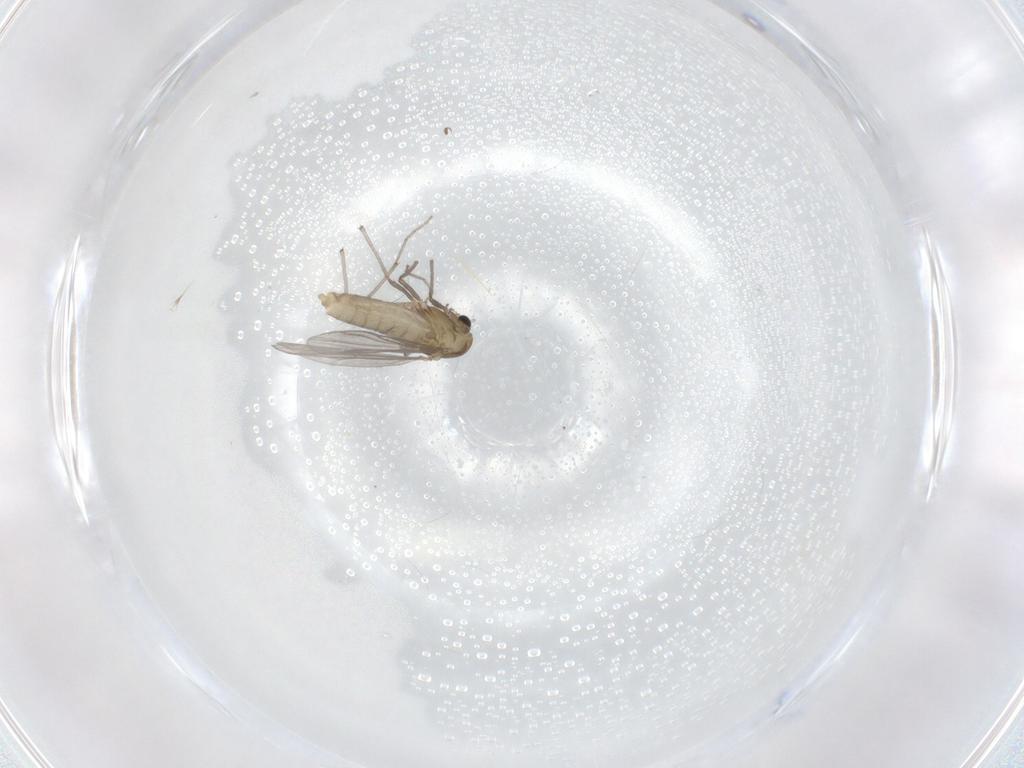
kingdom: Animalia
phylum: Arthropoda
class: Insecta
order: Diptera
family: Chironomidae
